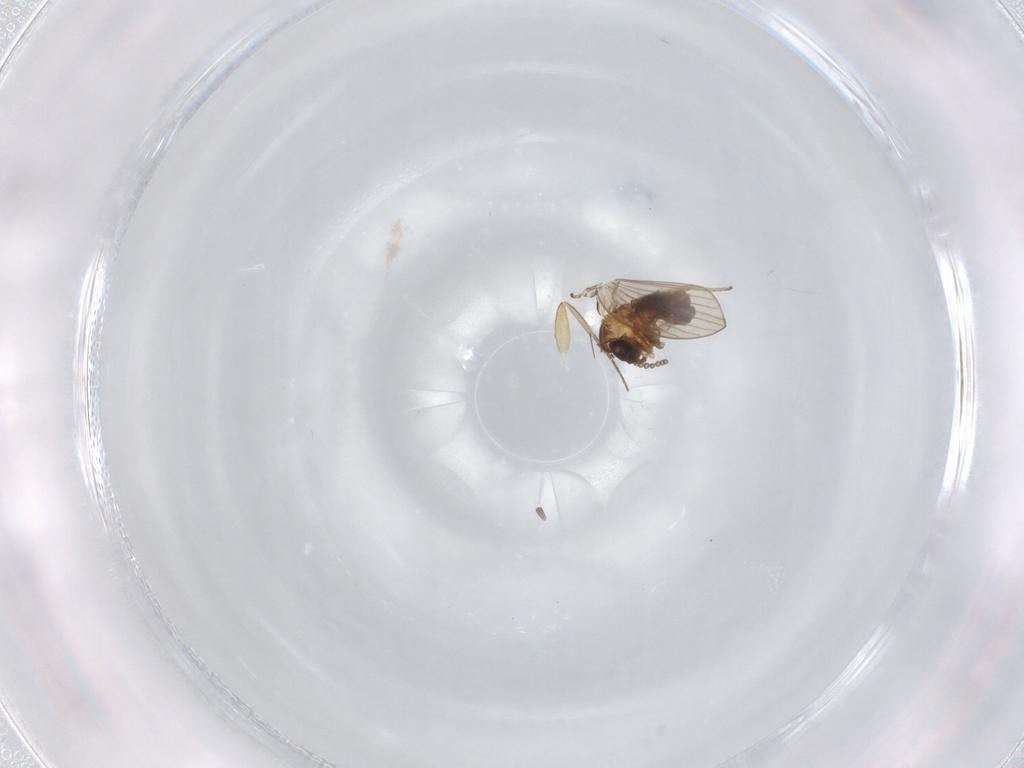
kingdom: Animalia
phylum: Arthropoda
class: Insecta
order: Diptera
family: Psychodidae
